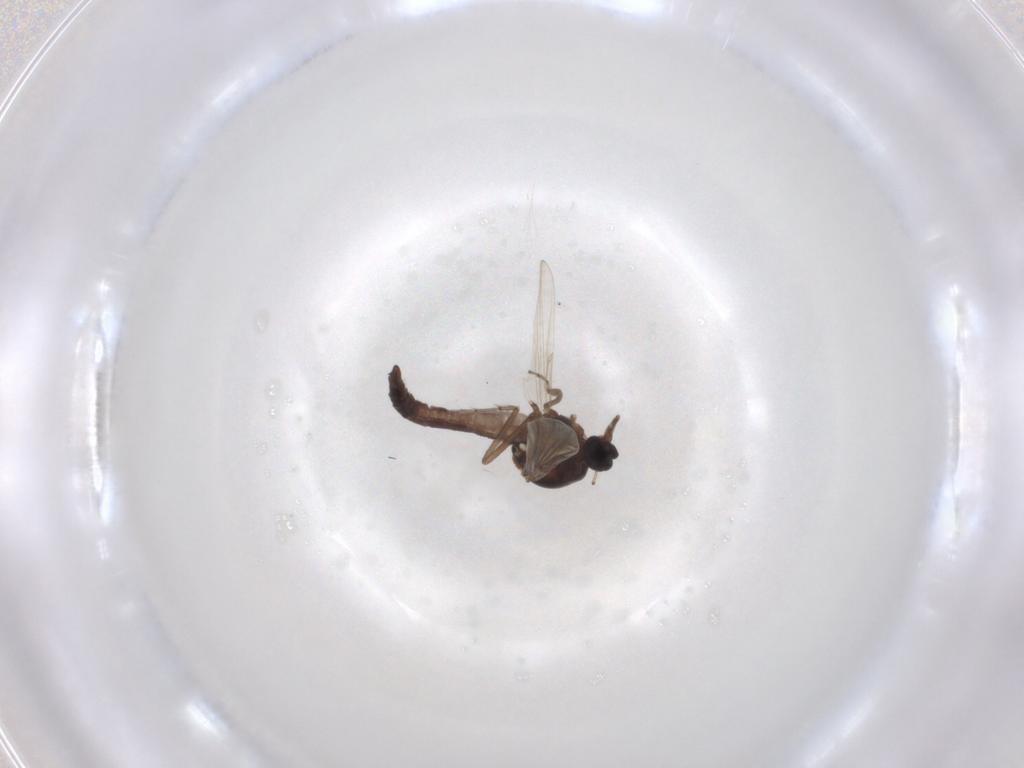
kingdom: Animalia
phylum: Arthropoda
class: Insecta
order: Diptera
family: Ceratopogonidae
